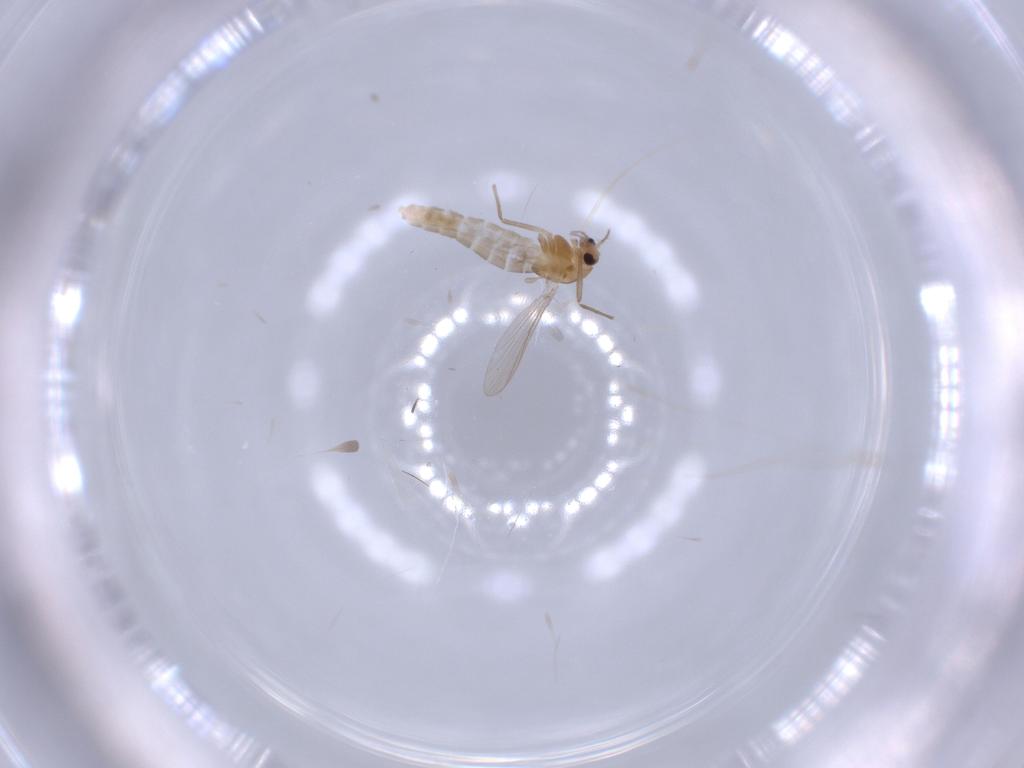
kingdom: Animalia
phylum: Arthropoda
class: Insecta
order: Diptera
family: Chironomidae
